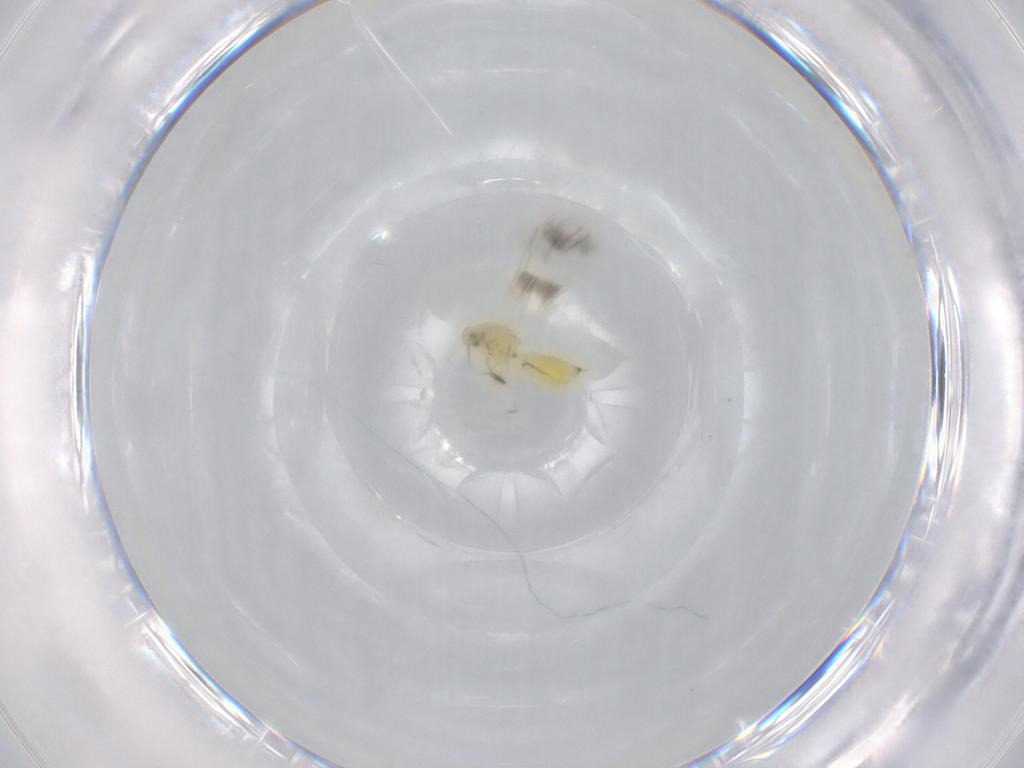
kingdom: Animalia
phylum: Arthropoda
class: Insecta
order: Hemiptera
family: Aleyrodidae
